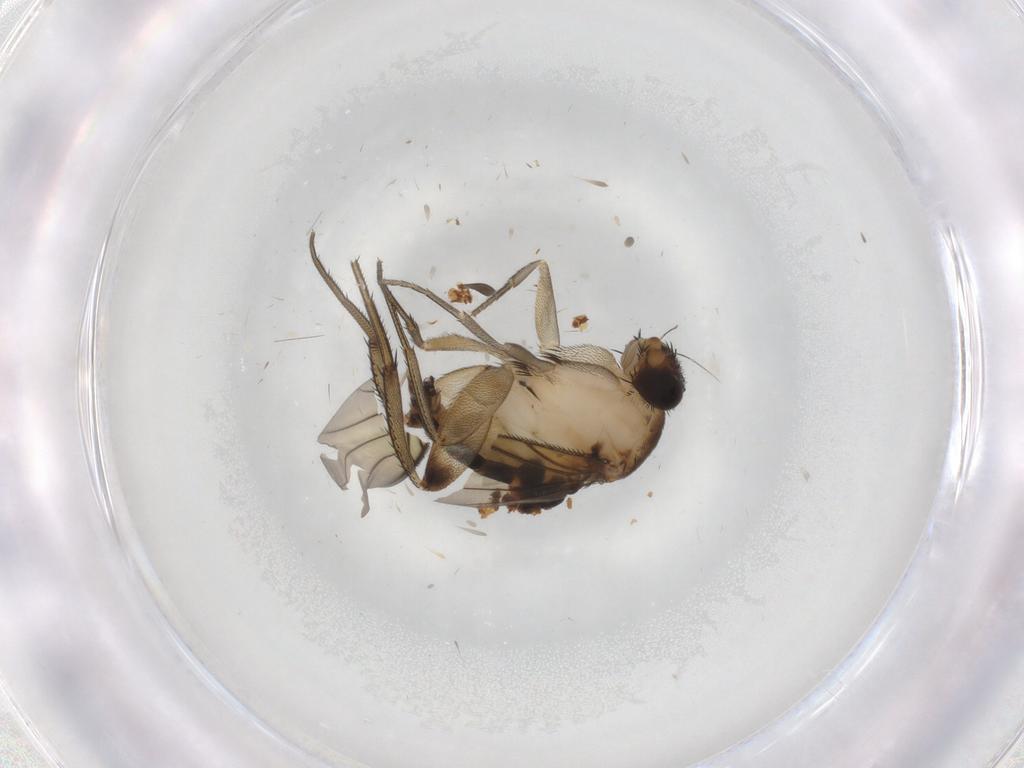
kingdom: Animalia
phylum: Arthropoda
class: Insecta
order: Diptera
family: Phoridae
